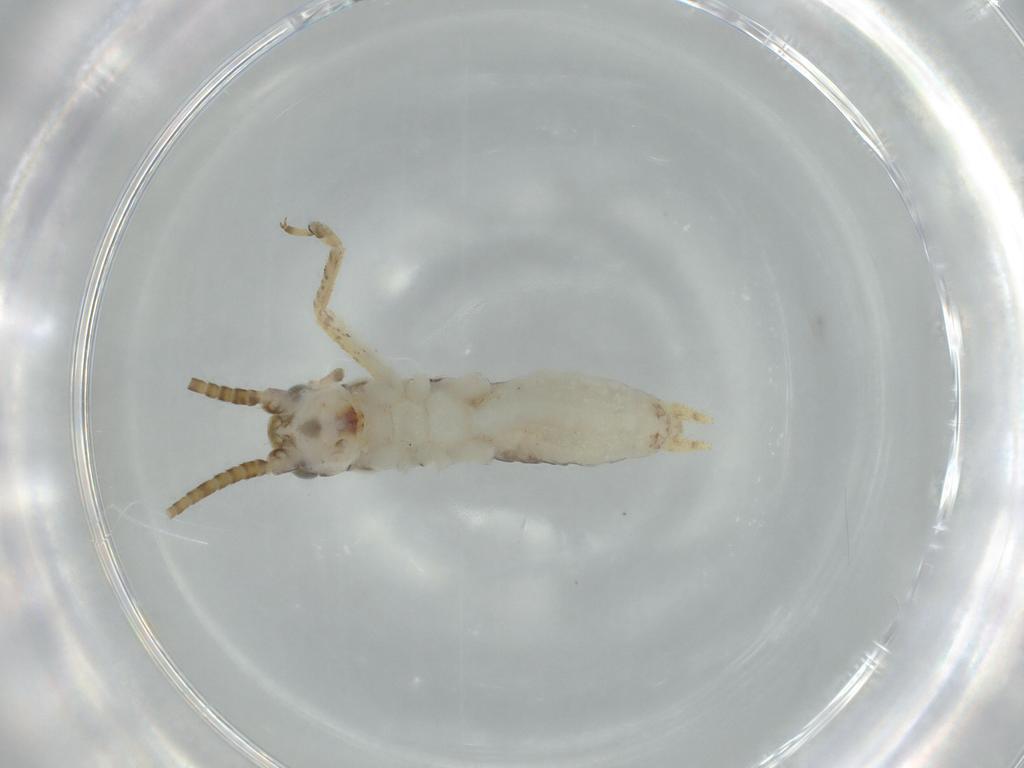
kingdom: Animalia
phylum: Arthropoda
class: Insecta
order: Orthoptera
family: Gryllidae
